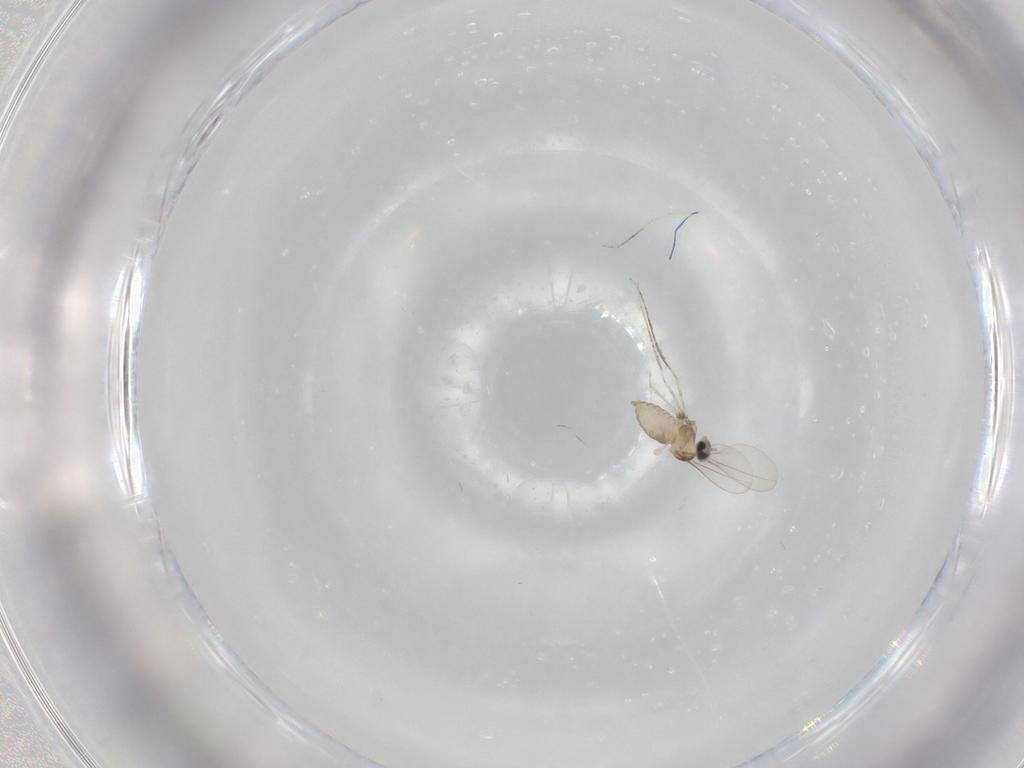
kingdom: Animalia
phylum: Arthropoda
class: Insecta
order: Diptera
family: Cecidomyiidae
